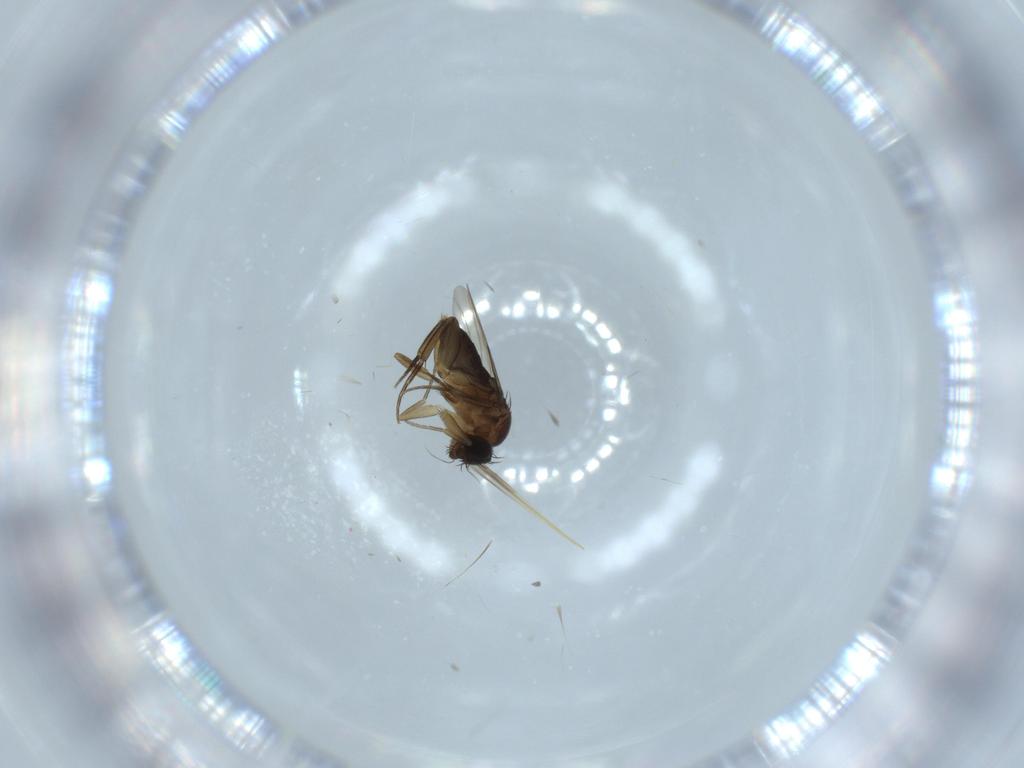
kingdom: Animalia
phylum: Arthropoda
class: Insecta
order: Diptera
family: Phoridae
